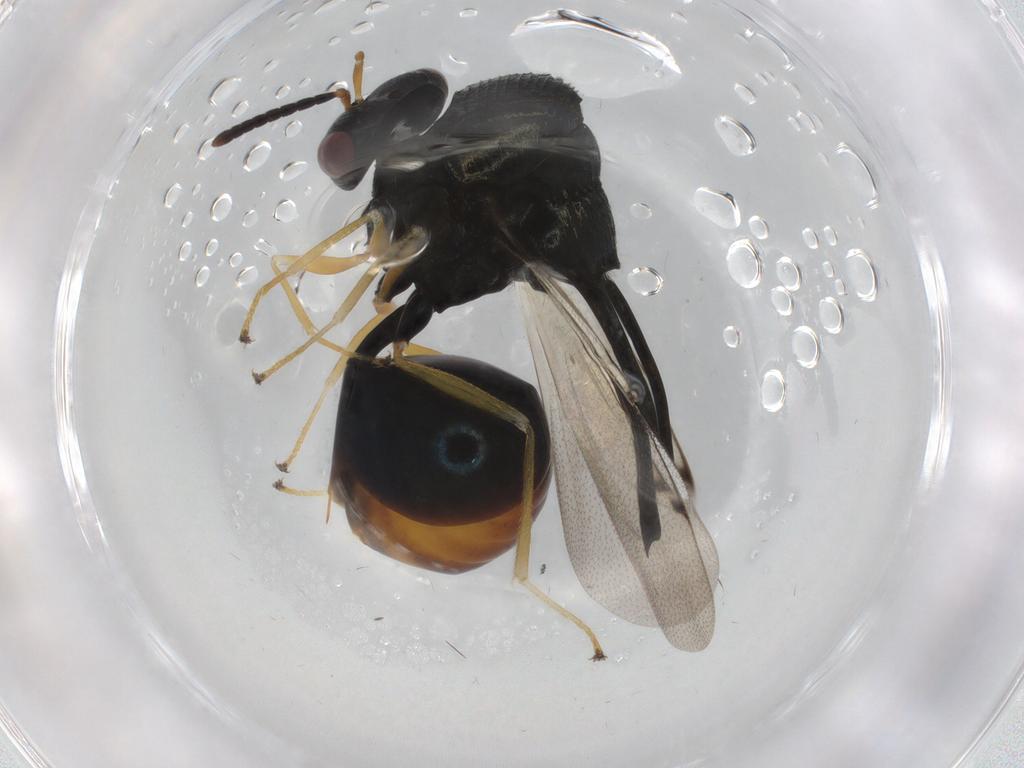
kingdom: Animalia
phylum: Arthropoda
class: Insecta
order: Hymenoptera
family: Eucharitidae
